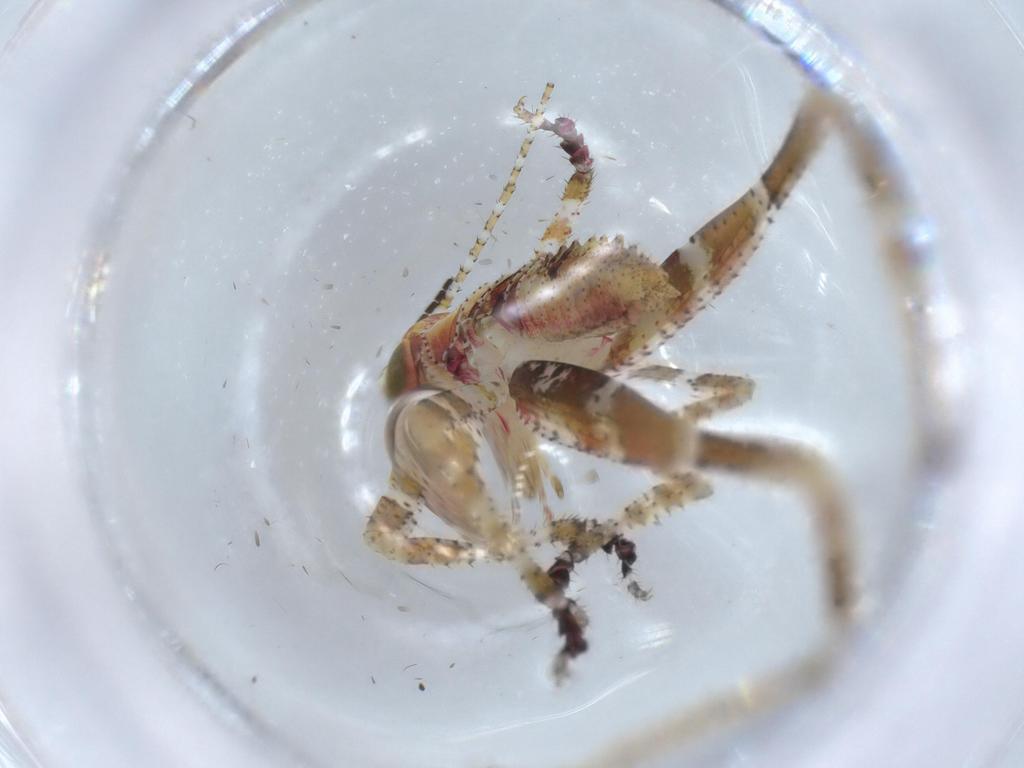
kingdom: Animalia
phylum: Arthropoda
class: Insecta
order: Orthoptera
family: Tettigoniidae
